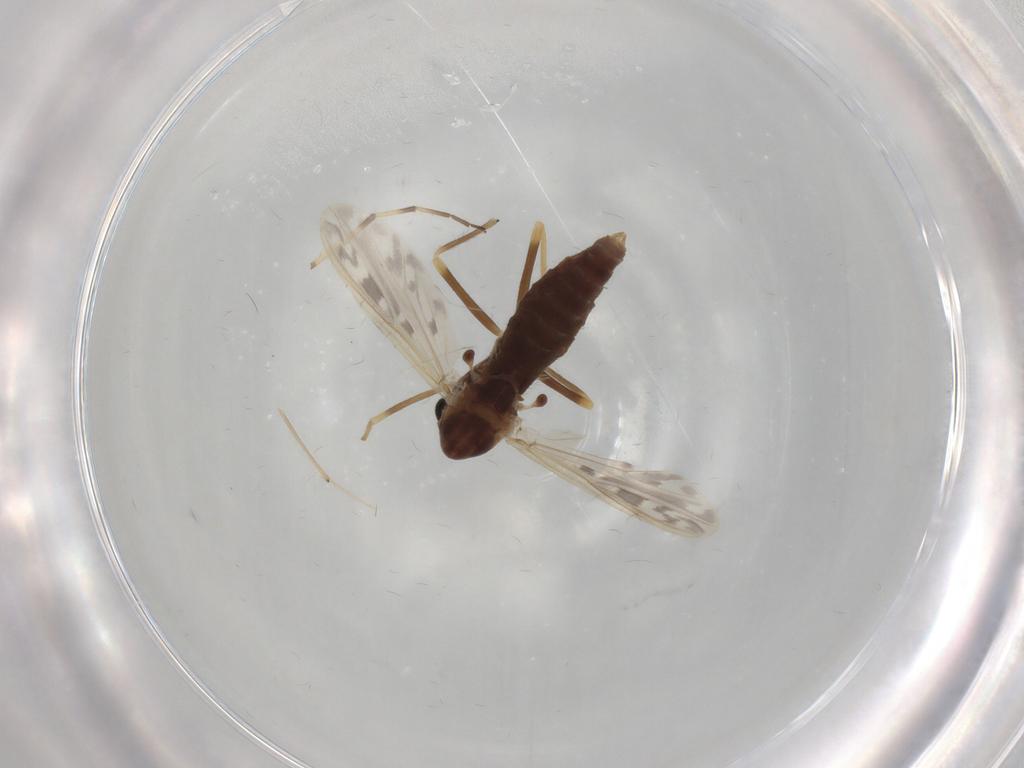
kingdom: Animalia
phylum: Arthropoda
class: Insecta
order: Diptera
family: Chironomidae
